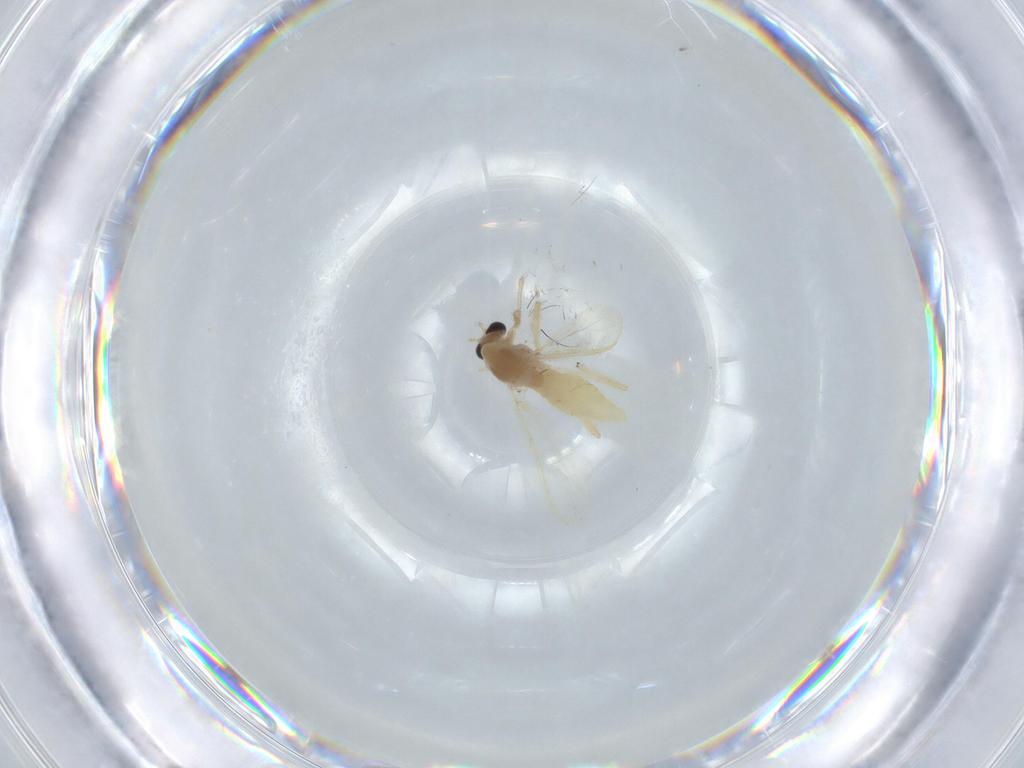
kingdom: Animalia
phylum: Arthropoda
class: Insecta
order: Diptera
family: Chironomidae
